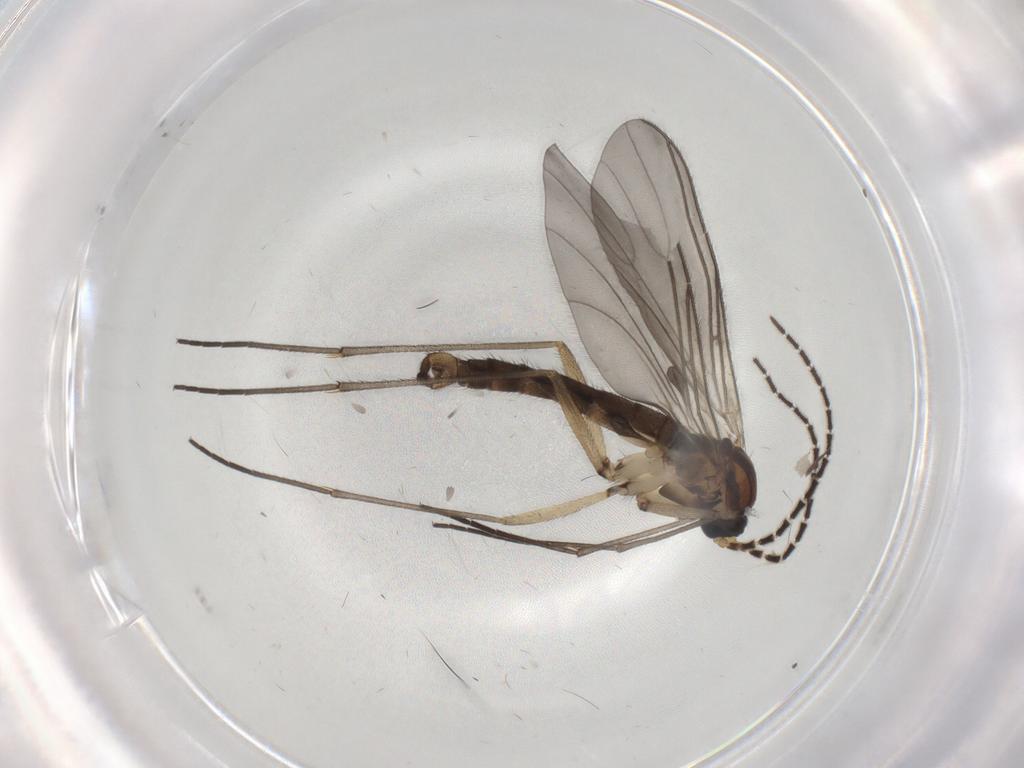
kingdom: Animalia
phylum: Arthropoda
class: Insecta
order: Diptera
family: Sciaridae
